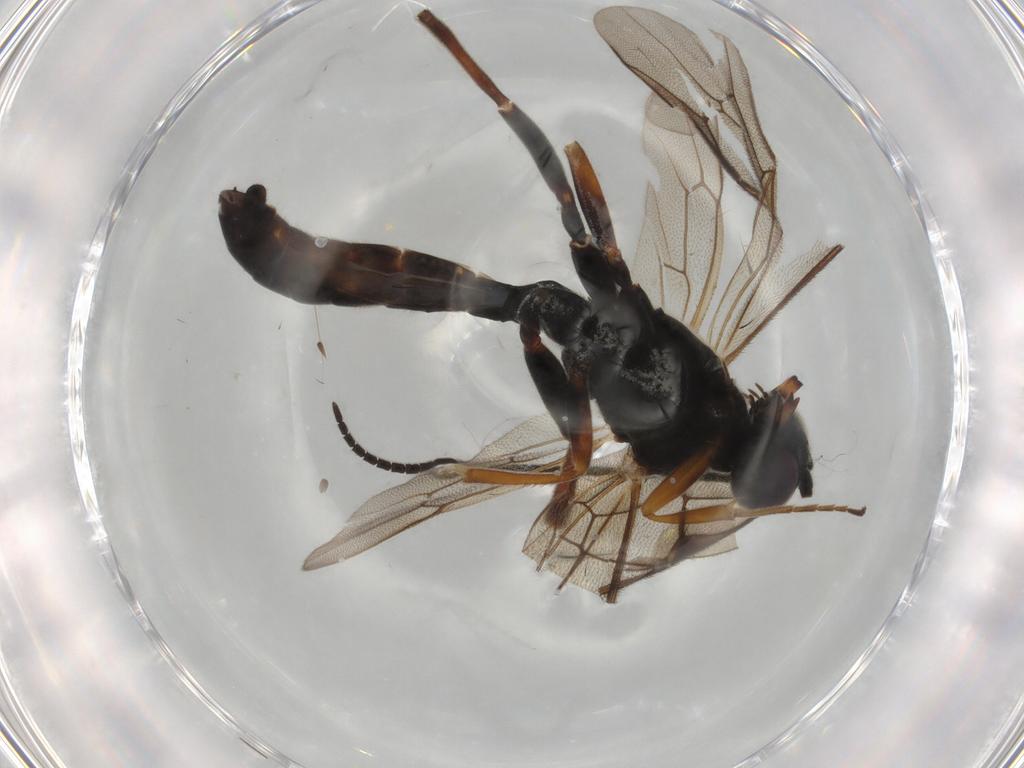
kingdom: Animalia
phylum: Arthropoda
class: Insecta
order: Hymenoptera
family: Ichneumonidae
